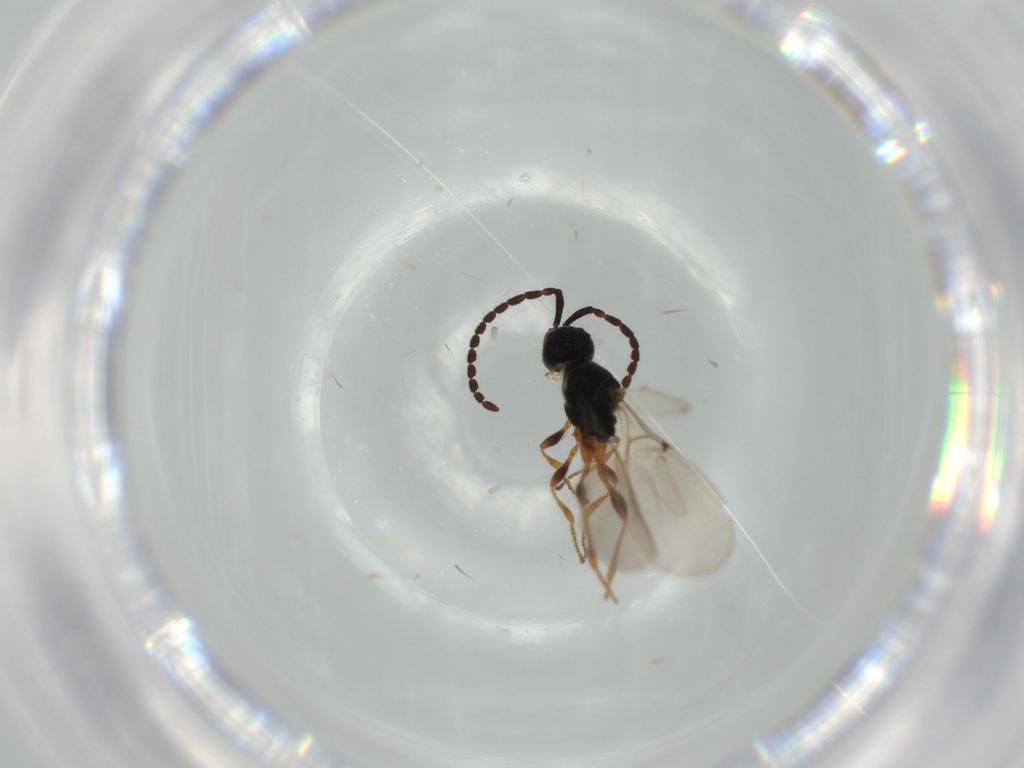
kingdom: Animalia
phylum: Arthropoda
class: Insecta
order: Hymenoptera
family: Diapriidae
